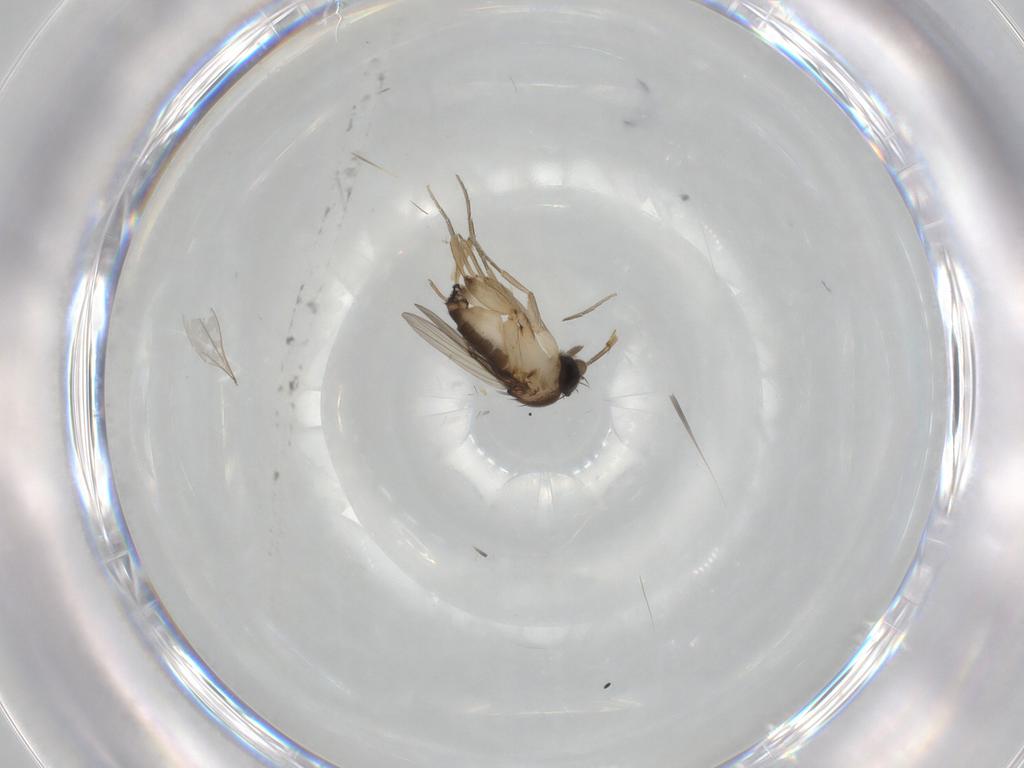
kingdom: Animalia
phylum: Arthropoda
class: Insecta
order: Diptera
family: Phoridae
